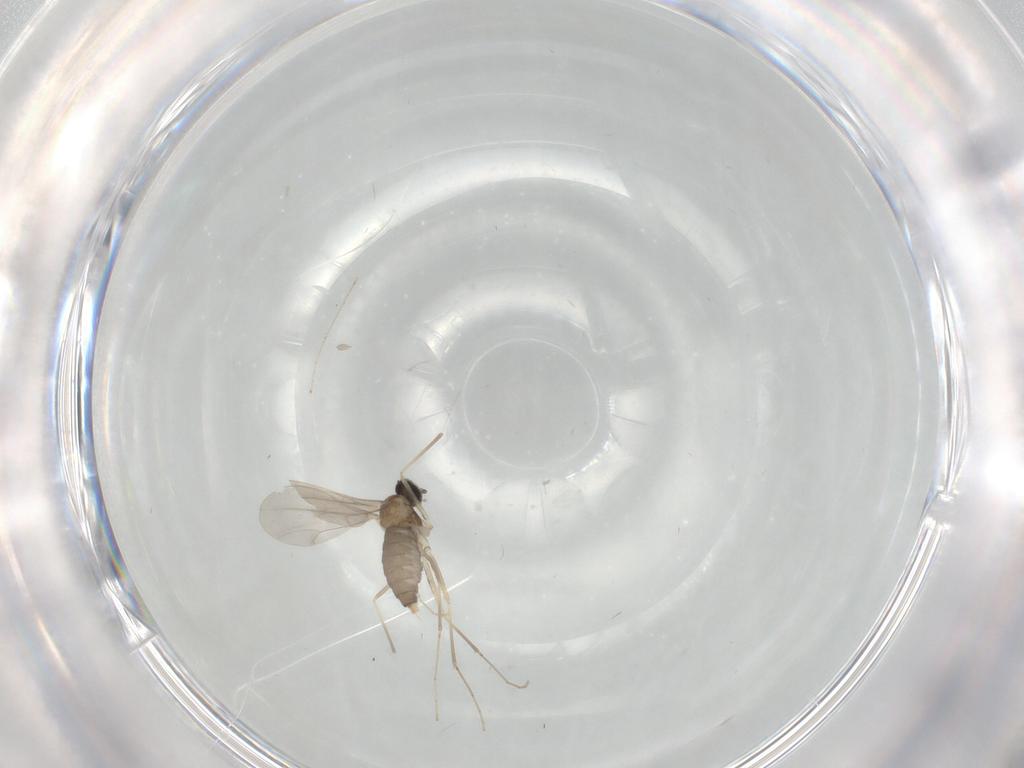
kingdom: Animalia
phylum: Arthropoda
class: Insecta
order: Diptera
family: Cecidomyiidae
